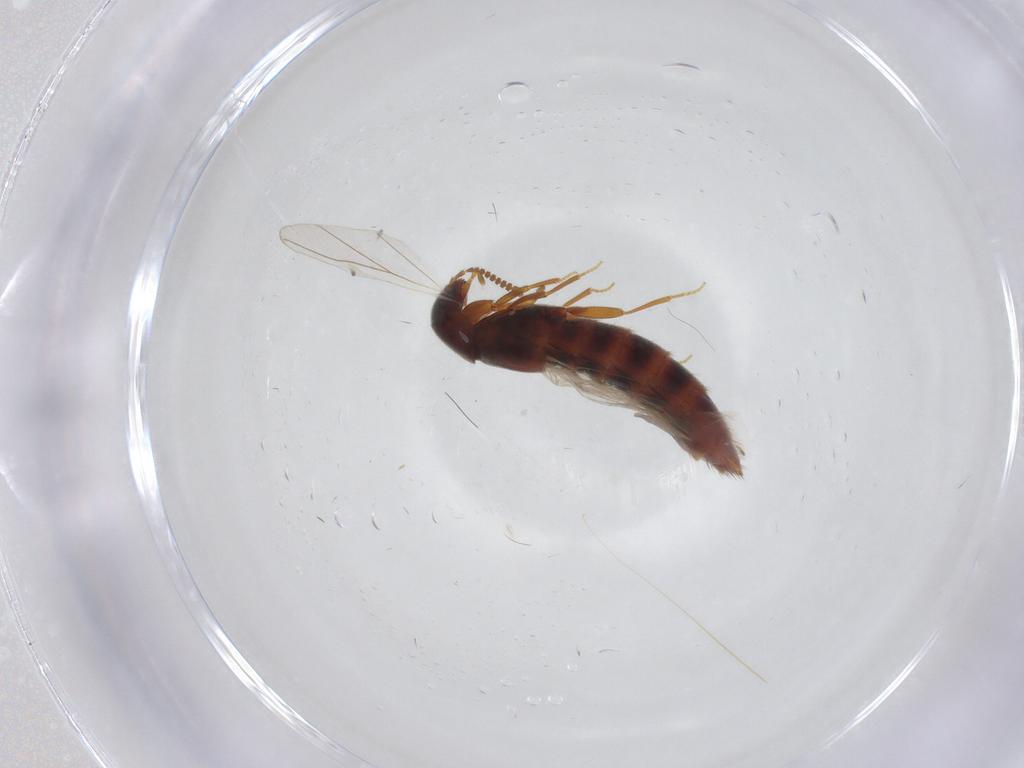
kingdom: Animalia
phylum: Arthropoda
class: Insecta
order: Coleoptera
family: Staphylinidae
